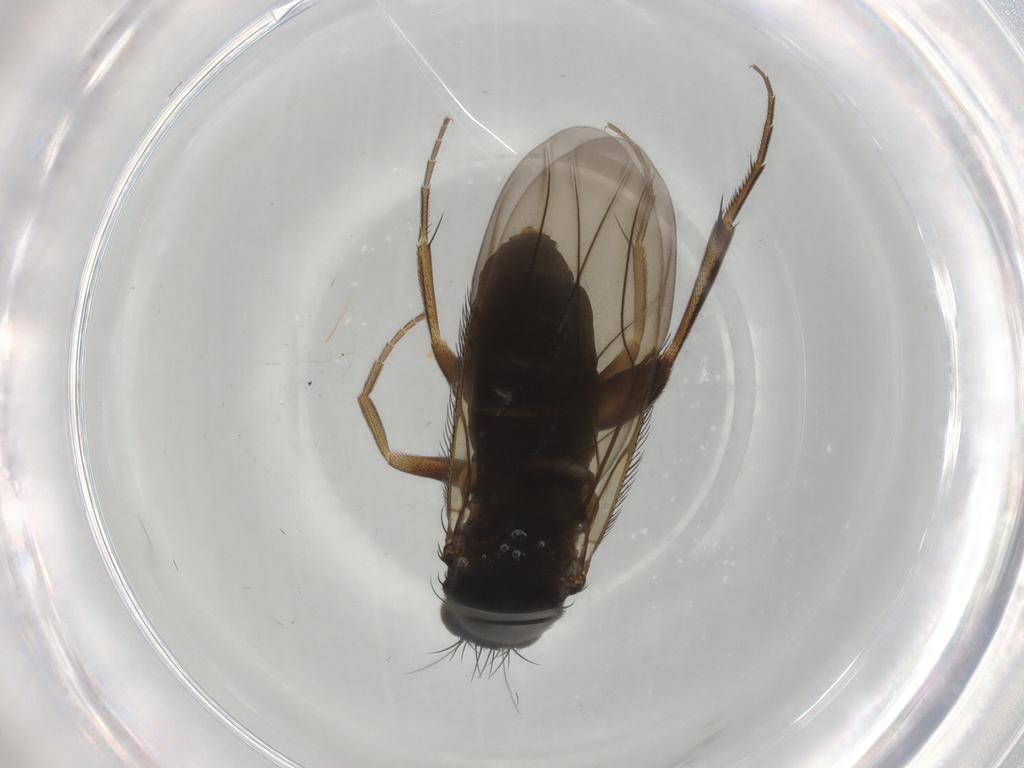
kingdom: Animalia
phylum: Arthropoda
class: Insecta
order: Diptera
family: Phoridae
